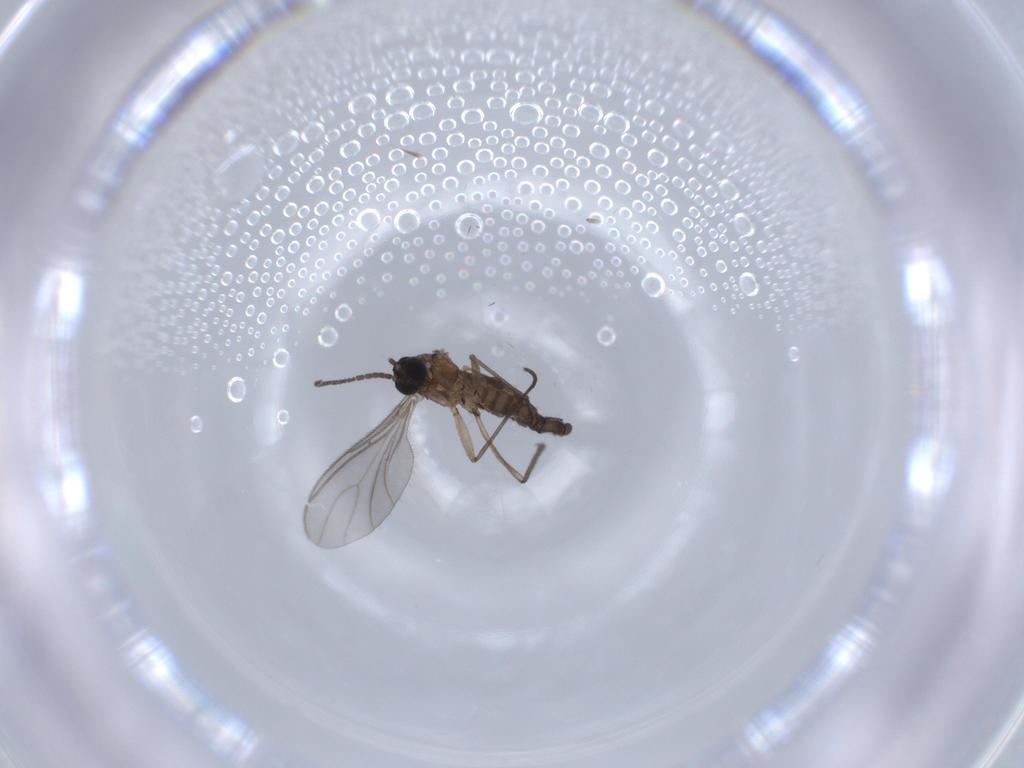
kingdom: Animalia
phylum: Arthropoda
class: Insecta
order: Diptera
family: Sciaridae
